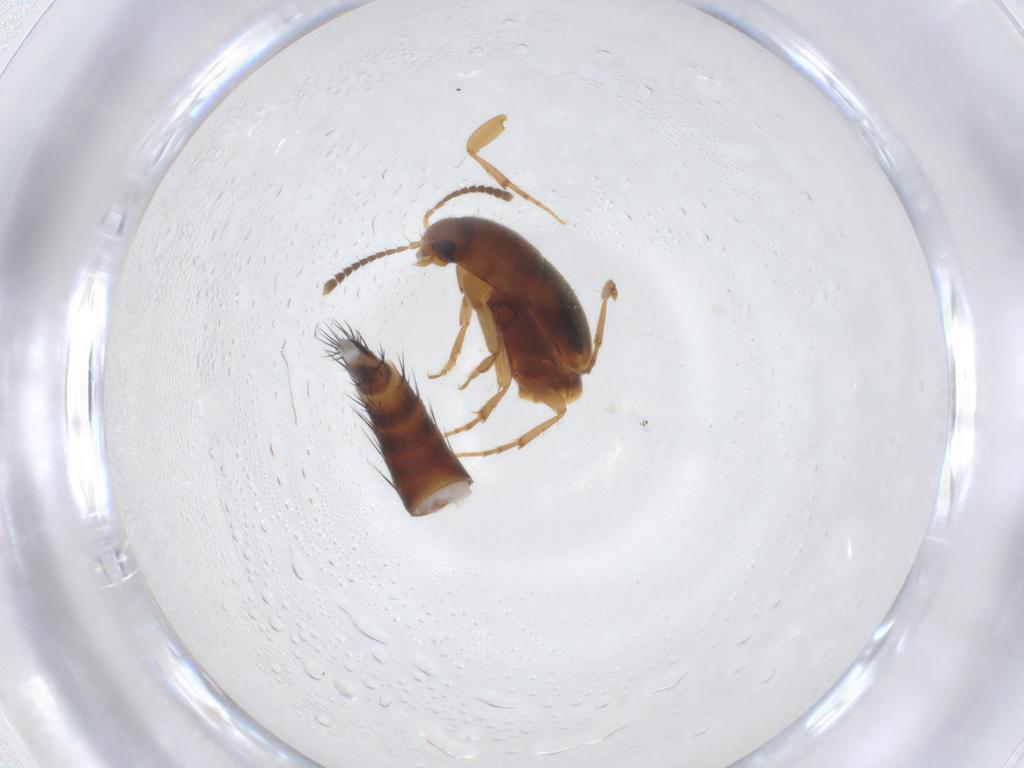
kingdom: Animalia
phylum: Arthropoda
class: Insecta
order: Coleoptera
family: Staphylinidae
